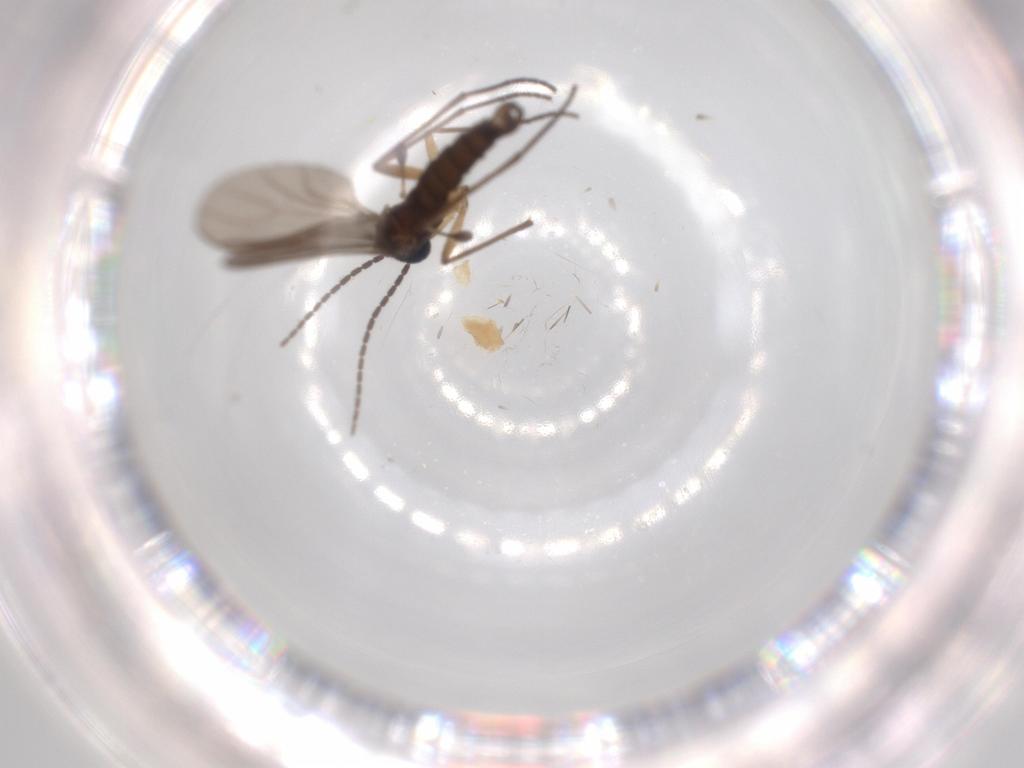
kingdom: Animalia
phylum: Arthropoda
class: Insecta
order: Diptera
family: Sciaridae
